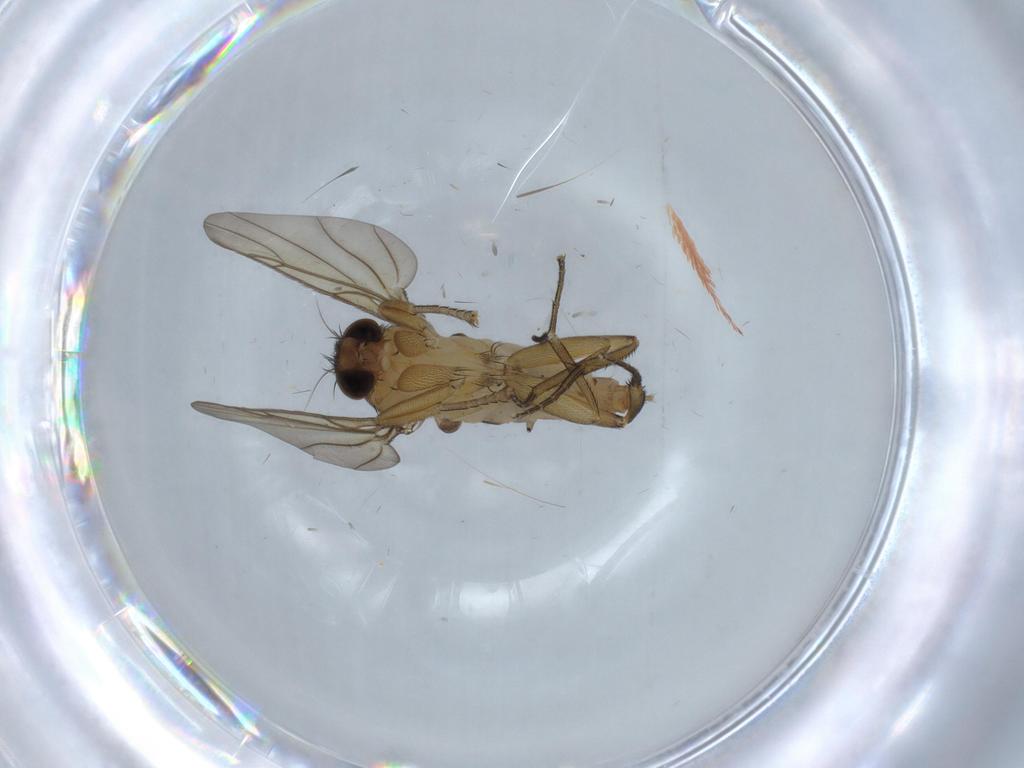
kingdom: Animalia
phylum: Arthropoda
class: Insecta
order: Diptera
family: Phoridae
